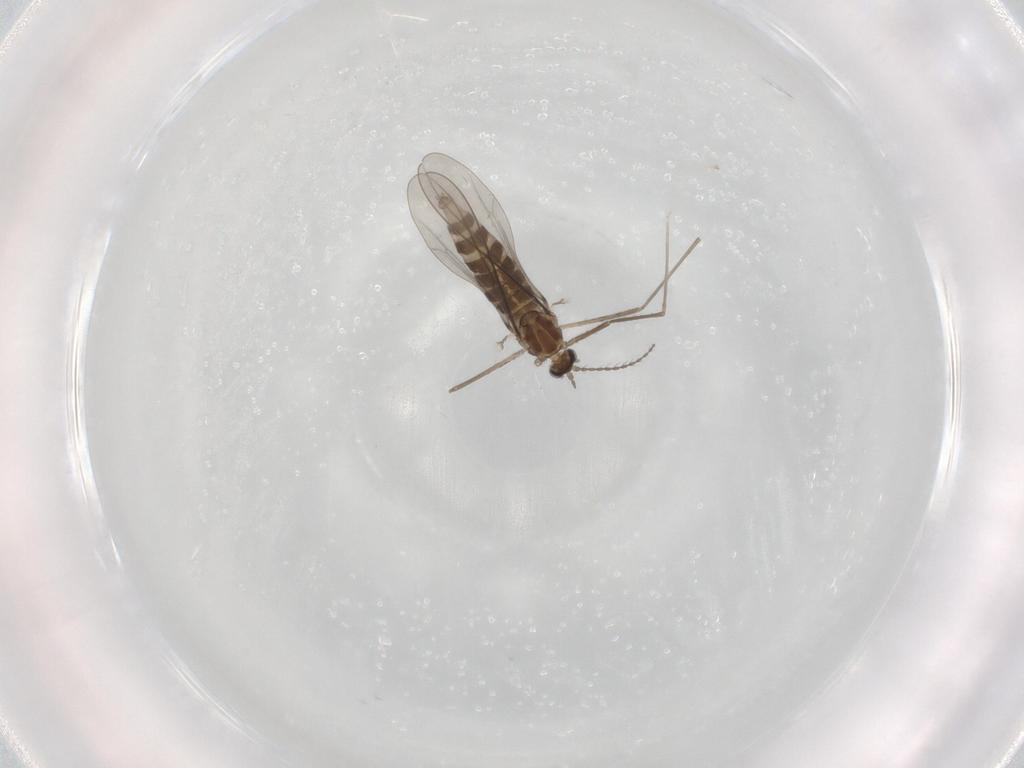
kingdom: Animalia
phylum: Arthropoda
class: Insecta
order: Diptera
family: Cecidomyiidae
